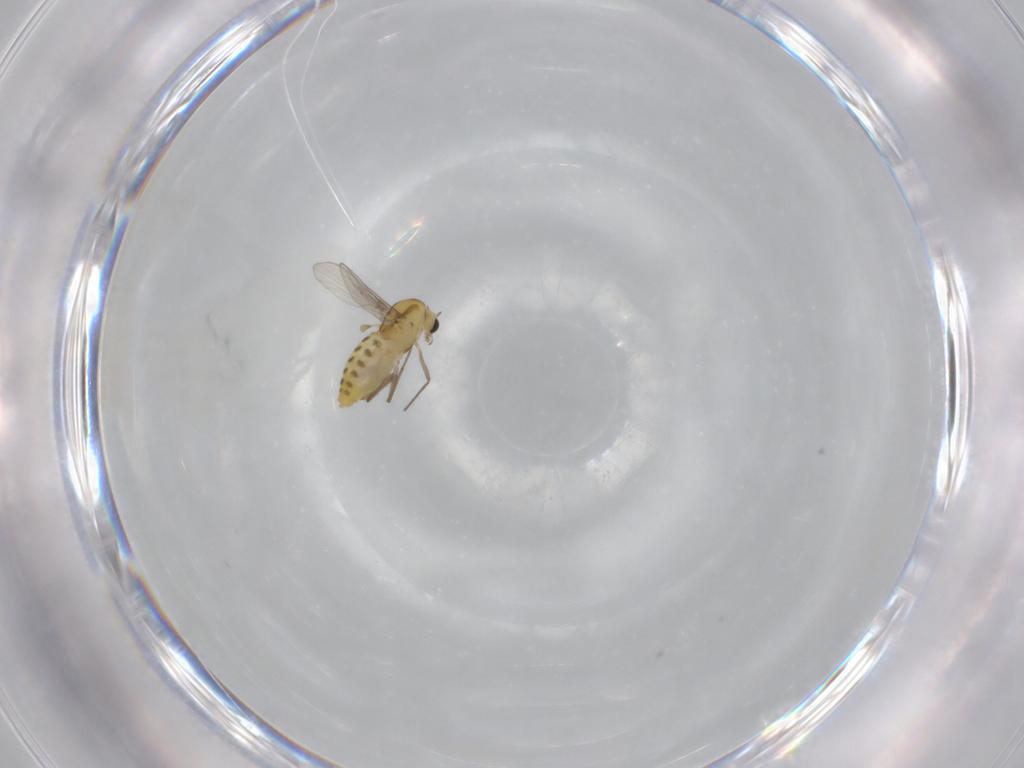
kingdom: Animalia
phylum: Arthropoda
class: Insecta
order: Diptera
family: Chironomidae
